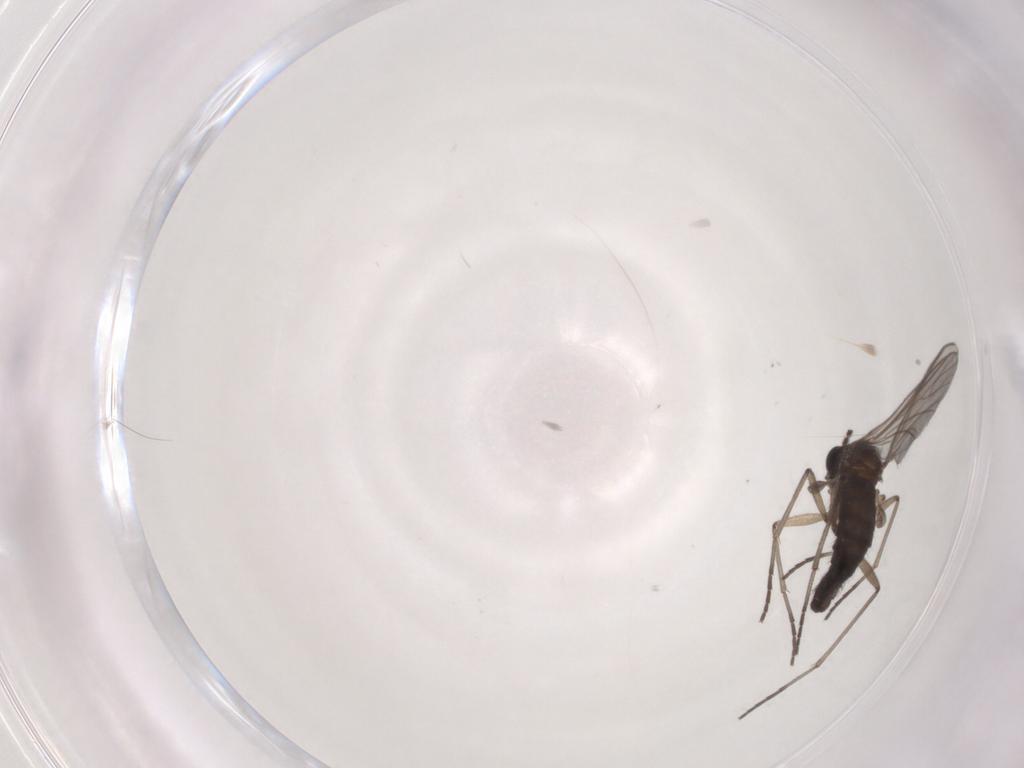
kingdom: Animalia
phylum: Arthropoda
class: Insecta
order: Diptera
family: Sciaridae
